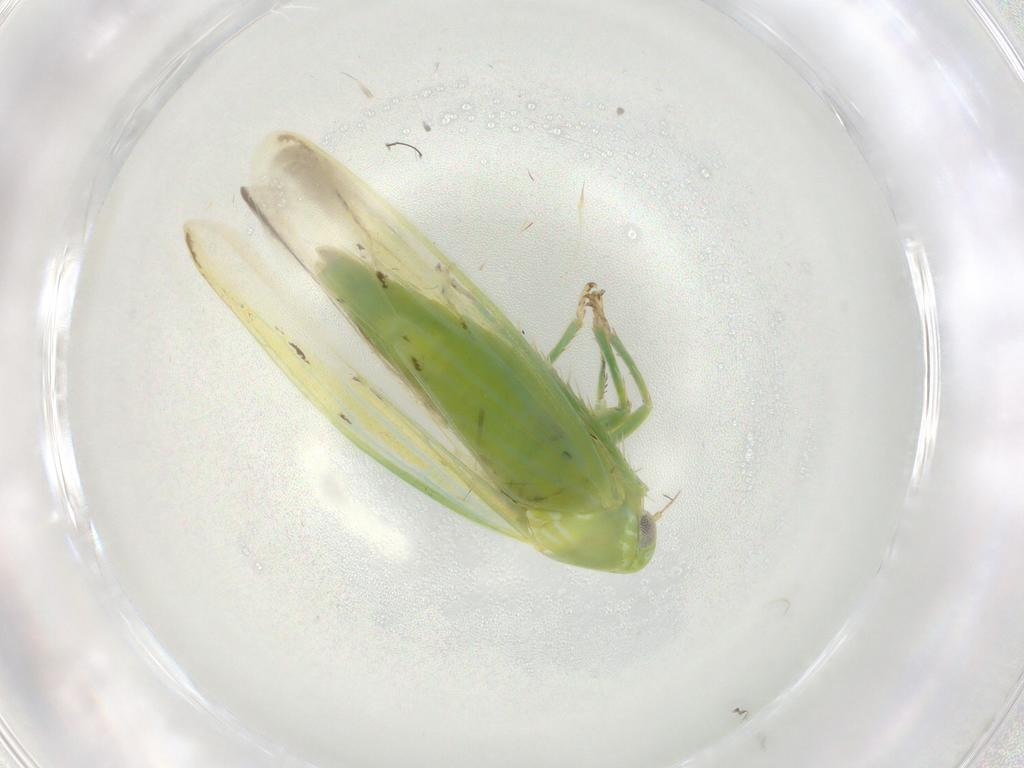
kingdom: Animalia
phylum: Arthropoda
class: Insecta
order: Hemiptera
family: Cicadellidae
